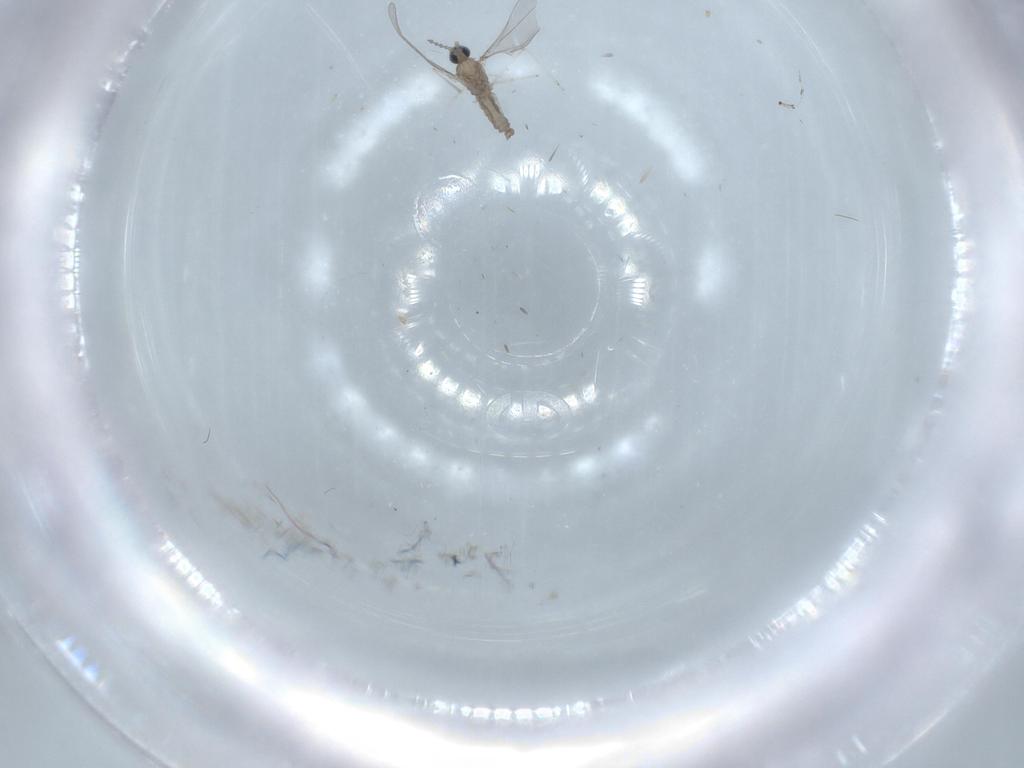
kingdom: Animalia
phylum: Arthropoda
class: Insecta
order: Diptera
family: Cecidomyiidae
